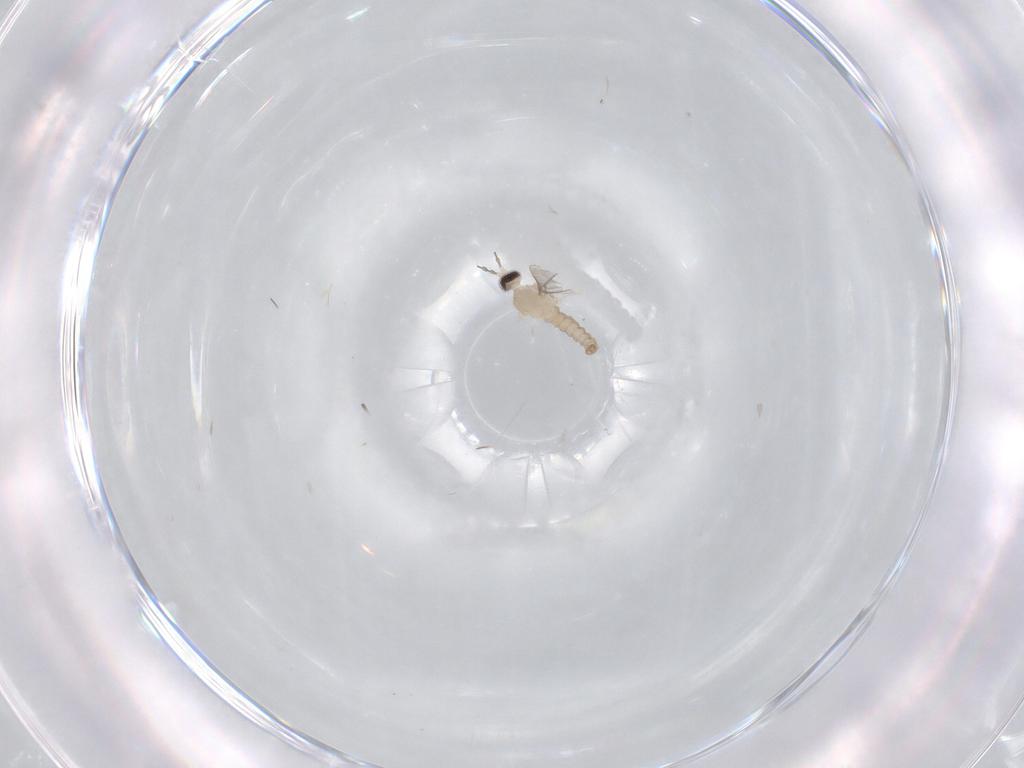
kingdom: Animalia
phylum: Arthropoda
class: Insecta
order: Diptera
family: Cecidomyiidae
